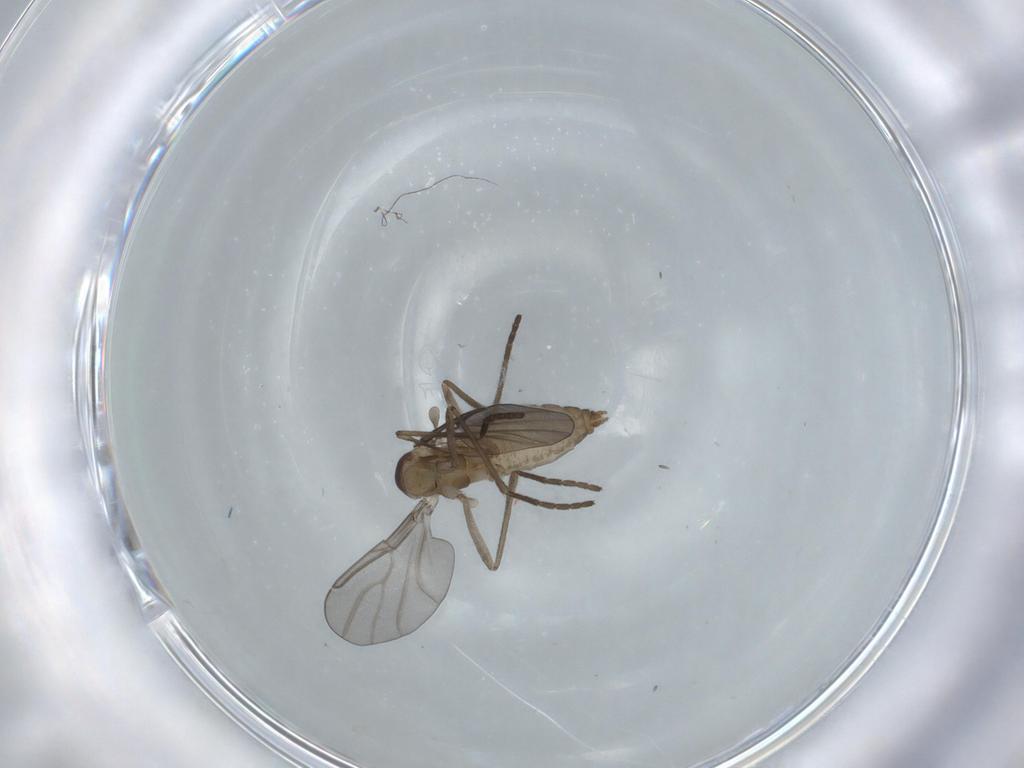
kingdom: Animalia
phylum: Arthropoda
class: Insecta
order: Diptera
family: Cecidomyiidae
